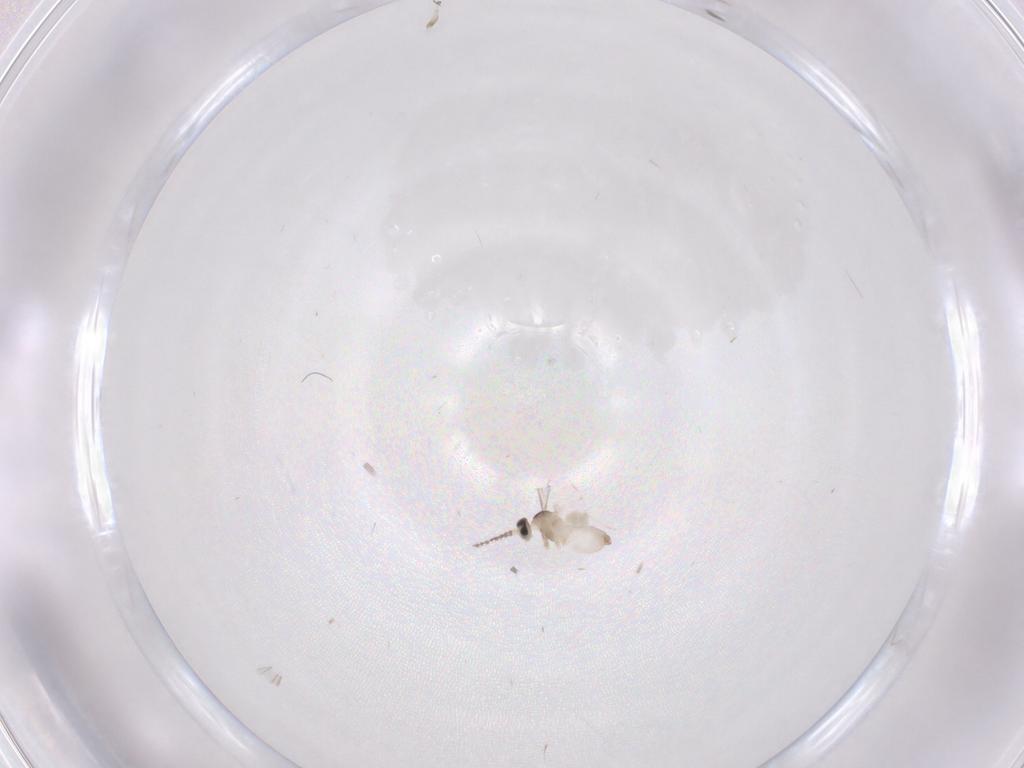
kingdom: Animalia
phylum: Arthropoda
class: Insecta
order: Diptera
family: Cecidomyiidae
